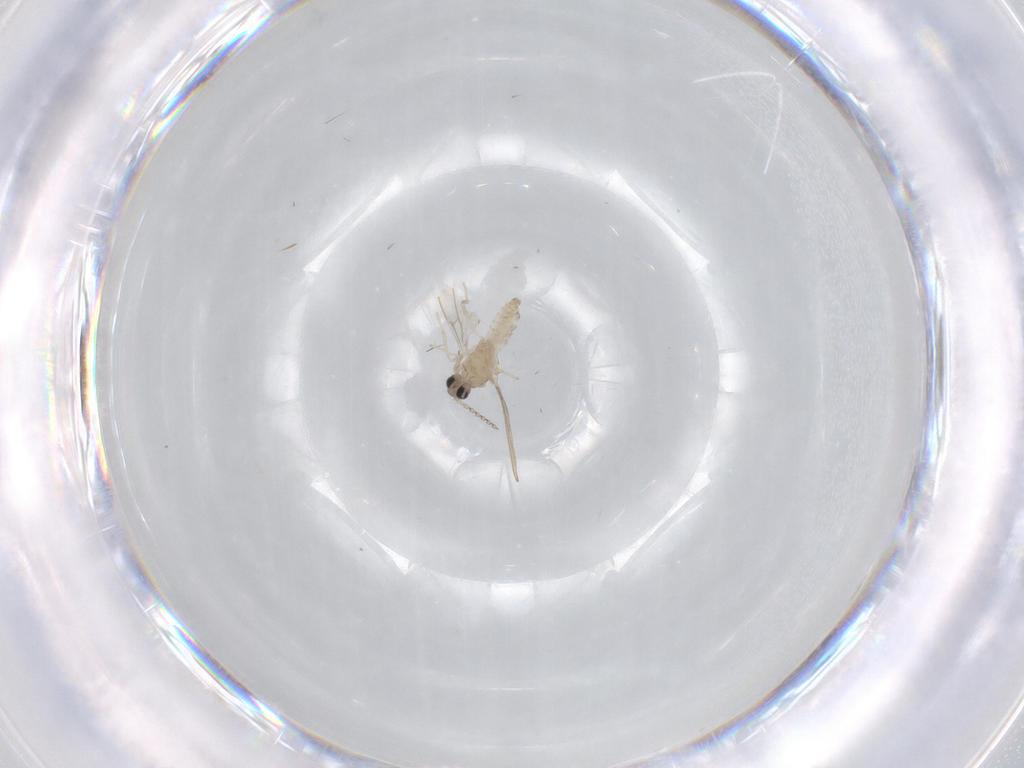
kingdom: Animalia
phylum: Arthropoda
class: Insecta
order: Diptera
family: Cecidomyiidae
